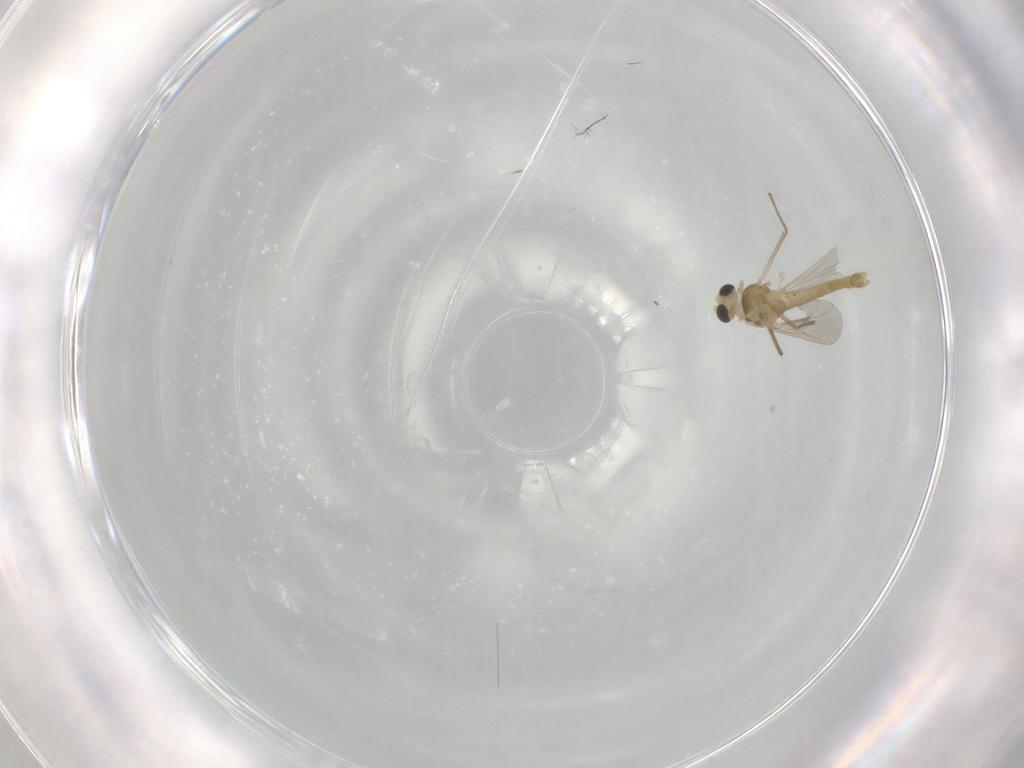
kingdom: Animalia
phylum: Arthropoda
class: Insecta
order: Diptera
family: Chironomidae
